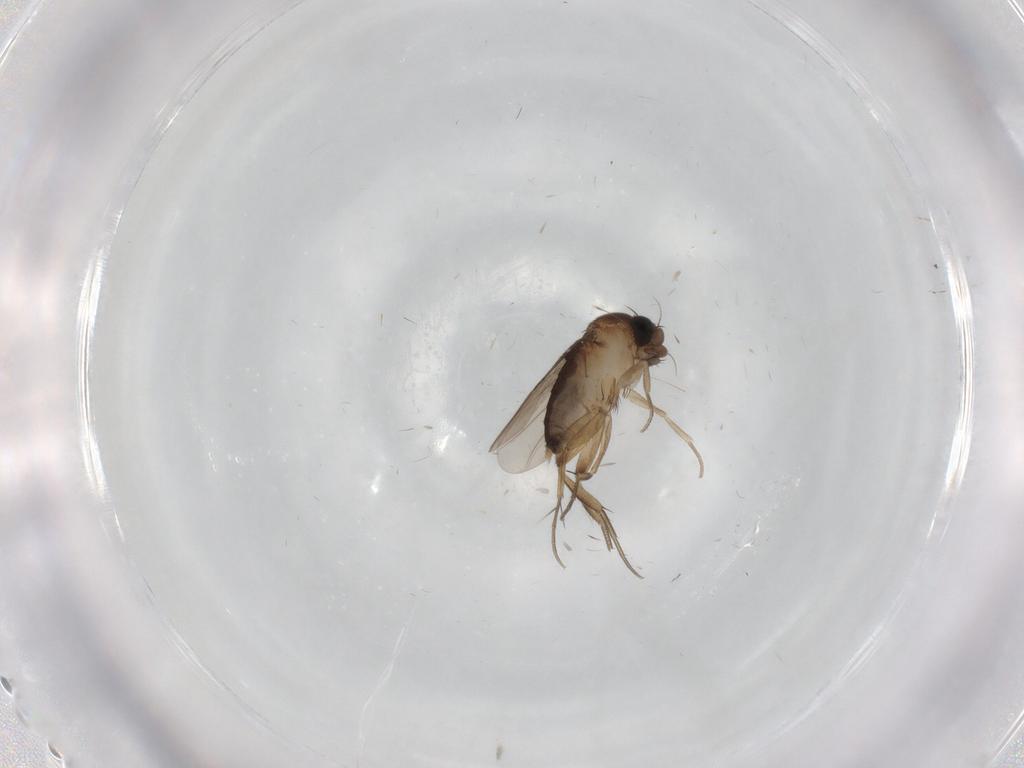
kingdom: Animalia
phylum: Arthropoda
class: Insecta
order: Diptera
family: Phoridae
